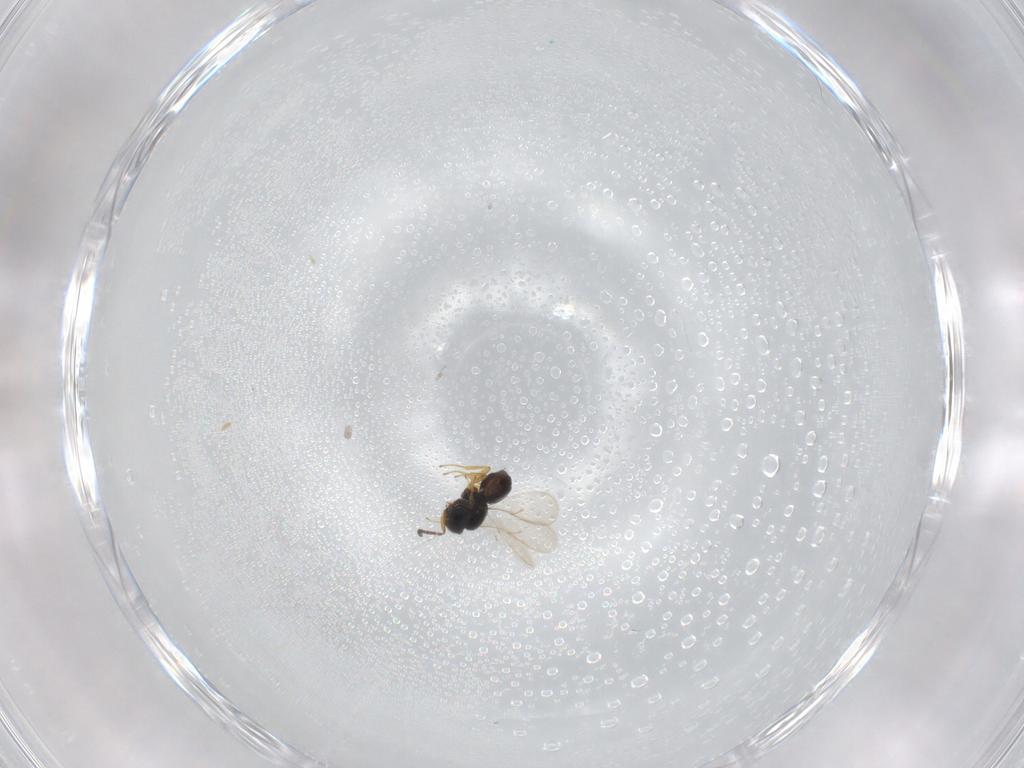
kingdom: Animalia
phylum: Arthropoda
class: Insecta
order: Hymenoptera
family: Scelionidae
